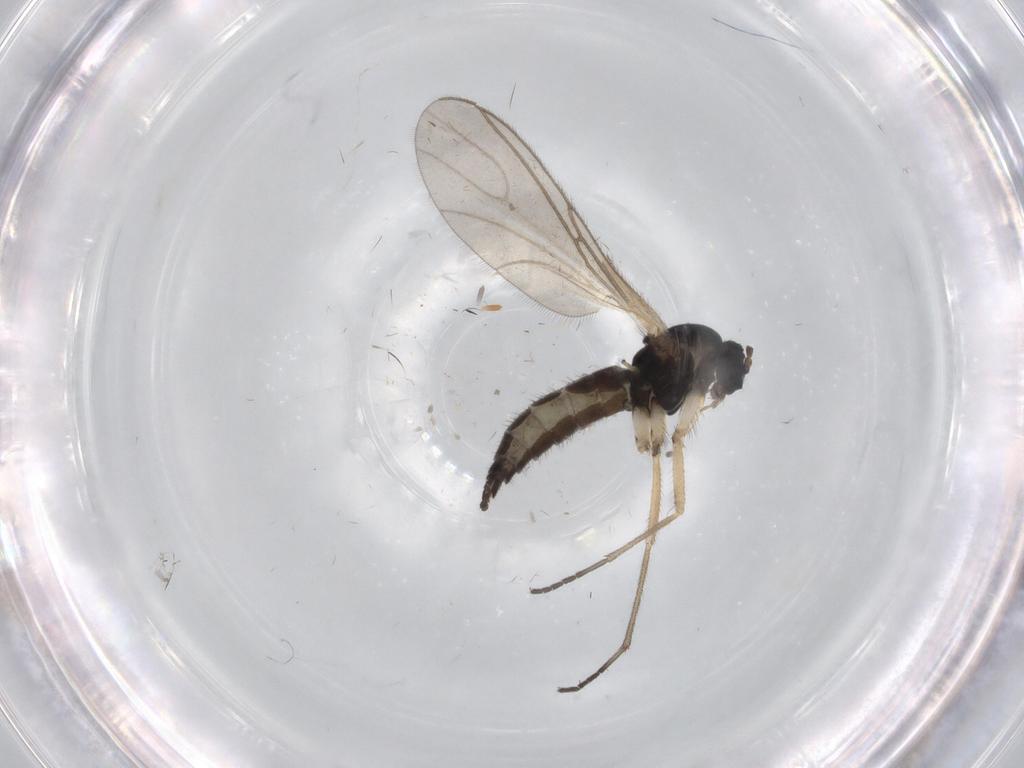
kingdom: Animalia
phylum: Arthropoda
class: Insecta
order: Diptera
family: Sciaridae
